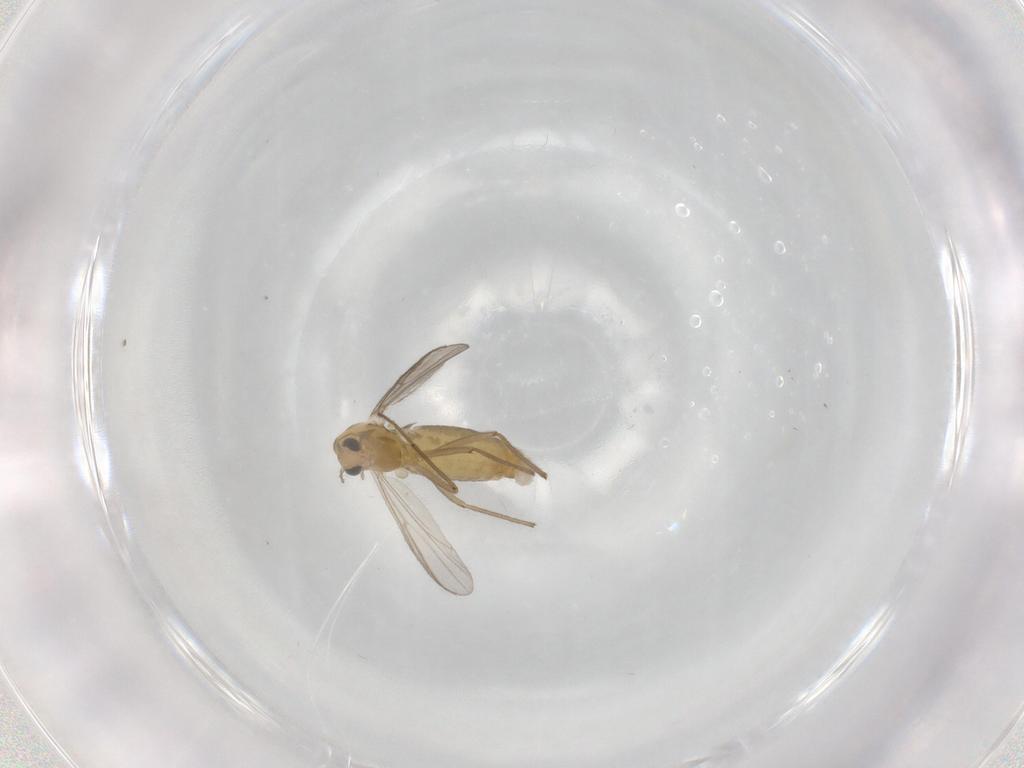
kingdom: Animalia
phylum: Arthropoda
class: Insecta
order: Diptera
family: Chironomidae
